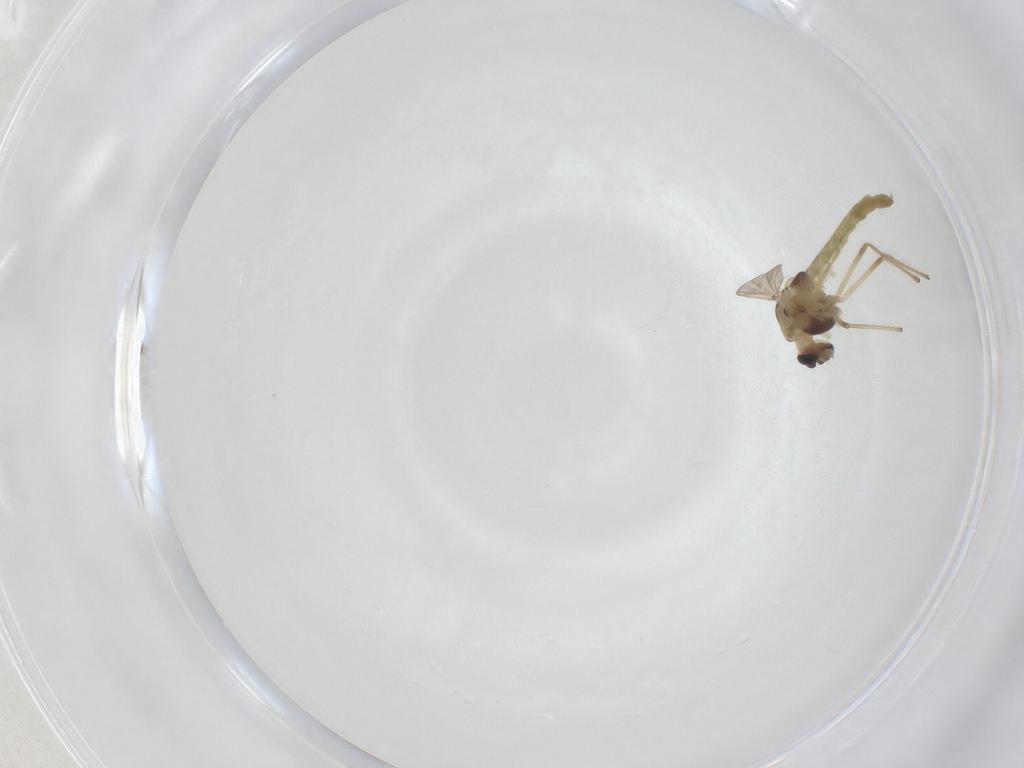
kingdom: Animalia
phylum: Arthropoda
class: Insecta
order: Diptera
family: Chironomidae
